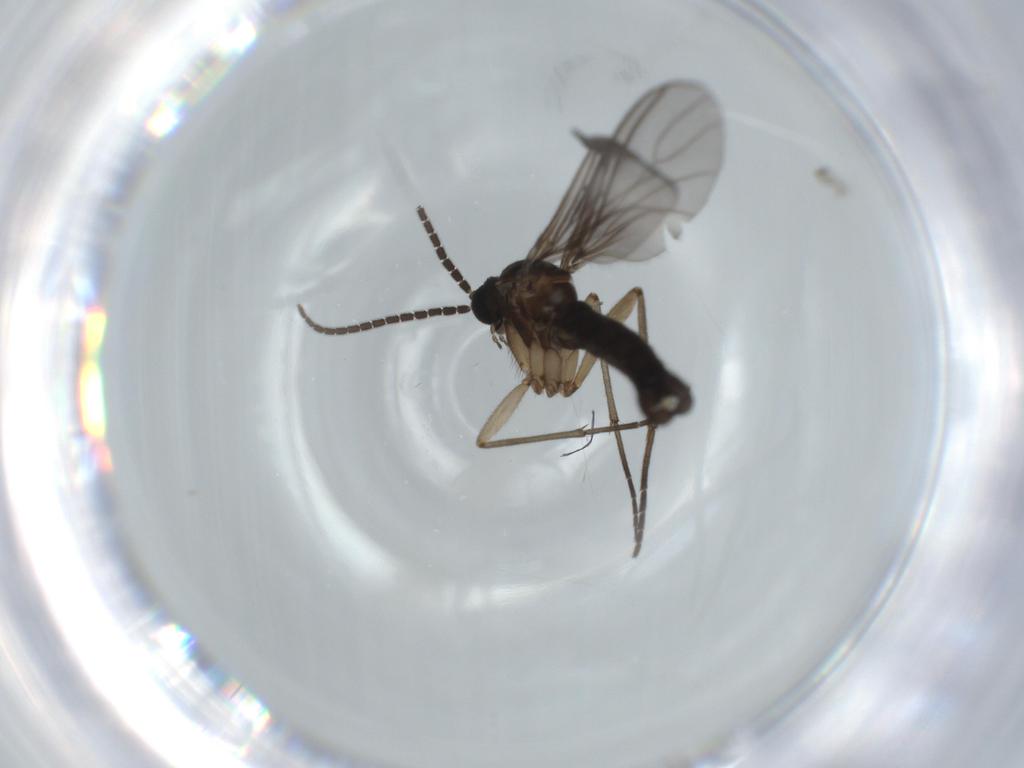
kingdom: Animalia
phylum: Arthropoda
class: Insecta
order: Diptera
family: Sciaridae
